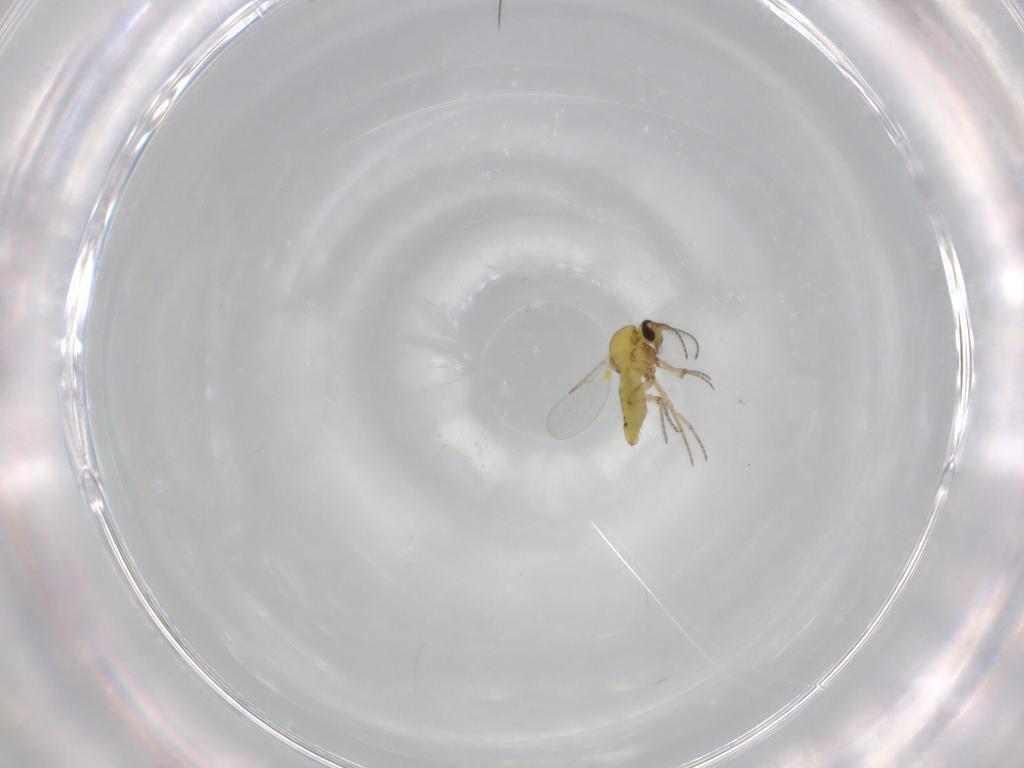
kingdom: Animalia
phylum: Arthropoda
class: Insecta
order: Diptera
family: Ceratopogonidae
